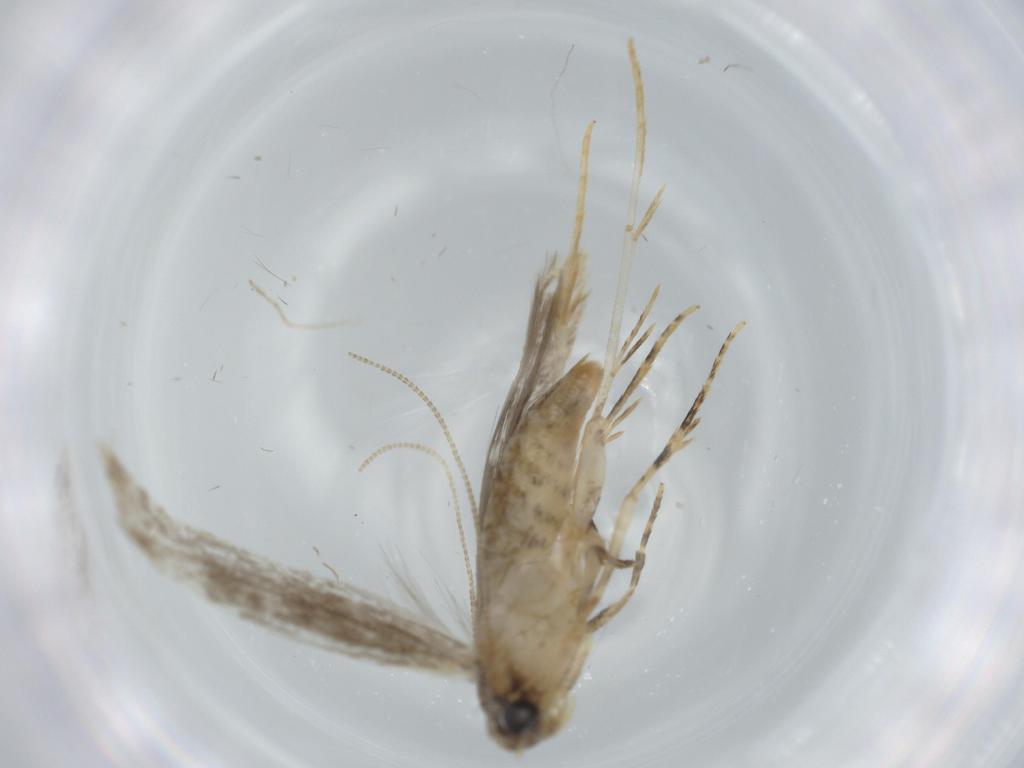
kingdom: Animalia
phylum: Arthropoda
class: Insecta
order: Lepidoptera
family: Tineidae
